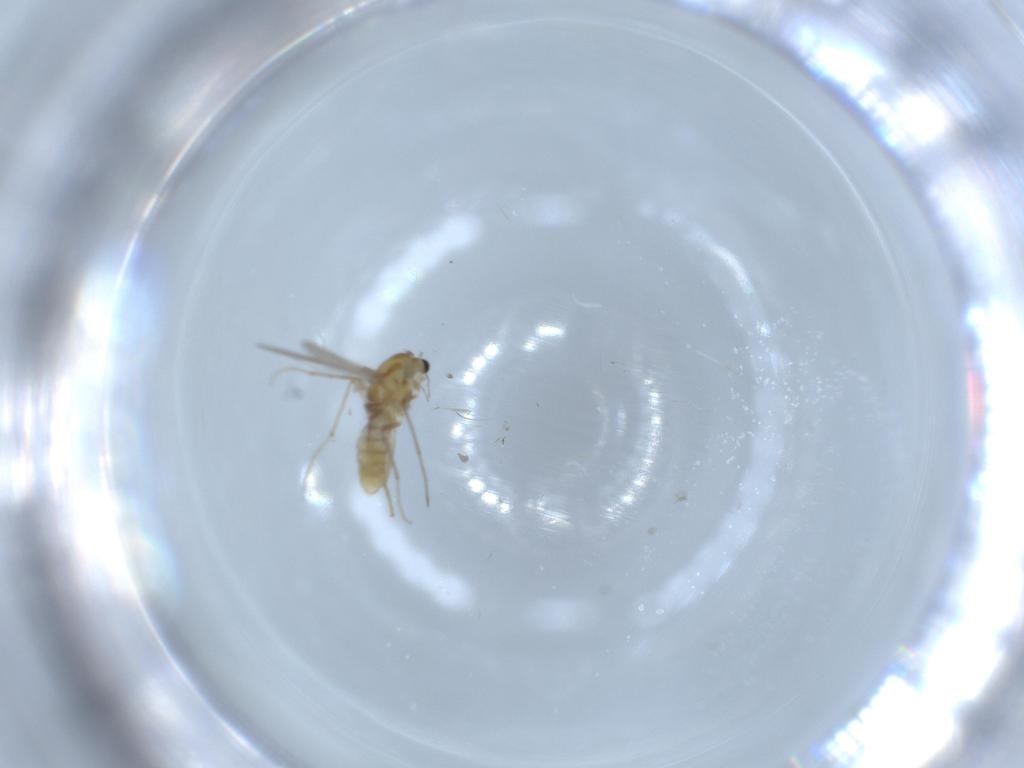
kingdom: Animalia
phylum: Arthropoda
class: Insecta
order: Diptera
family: Chironomidae
